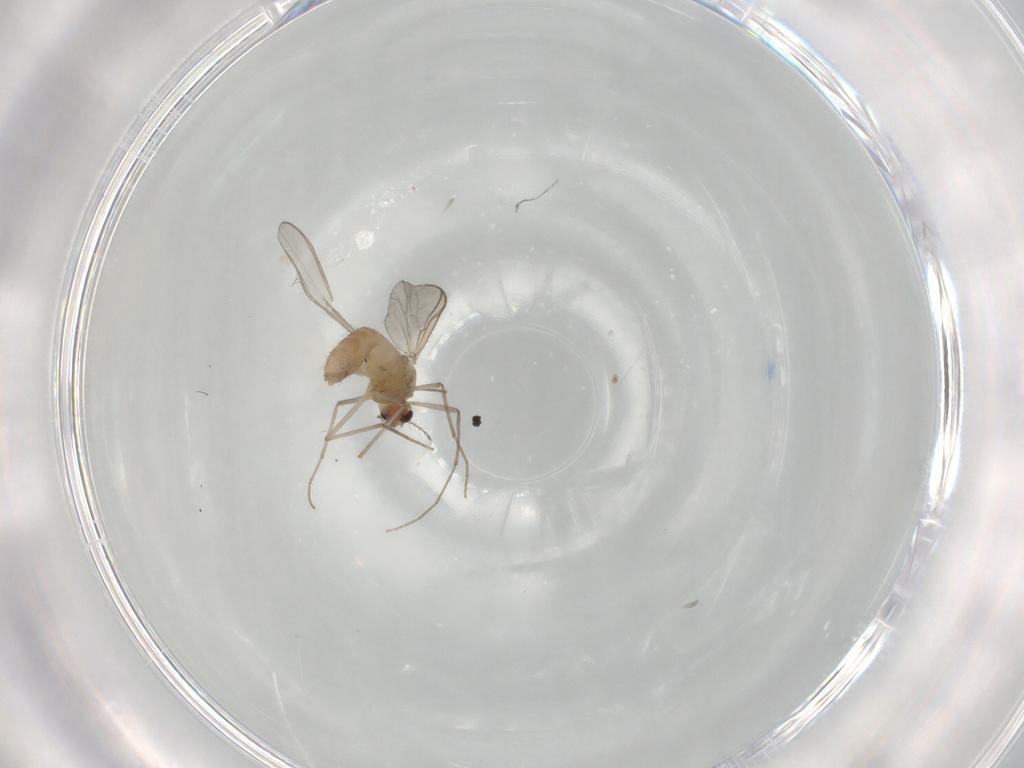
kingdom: Animalia
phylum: Arthropoda
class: Insecta
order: Diptera
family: Chironomidae
